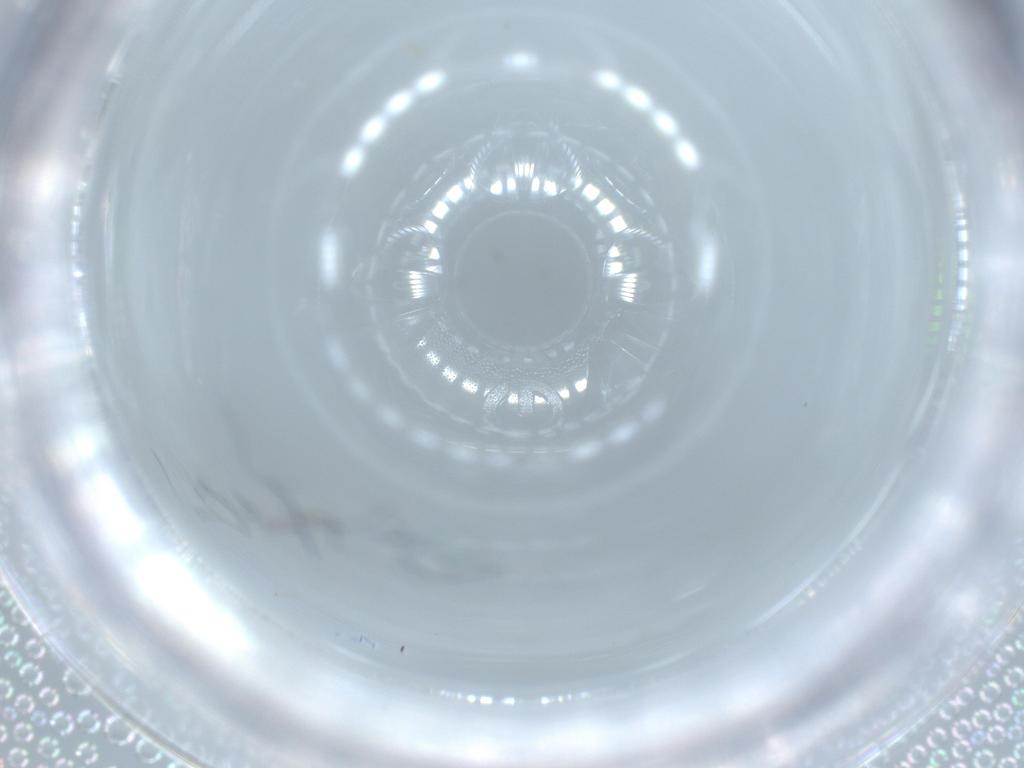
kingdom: Animalia
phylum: Arthropoda
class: Insecta
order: Diptera
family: Cecidomyiidae
